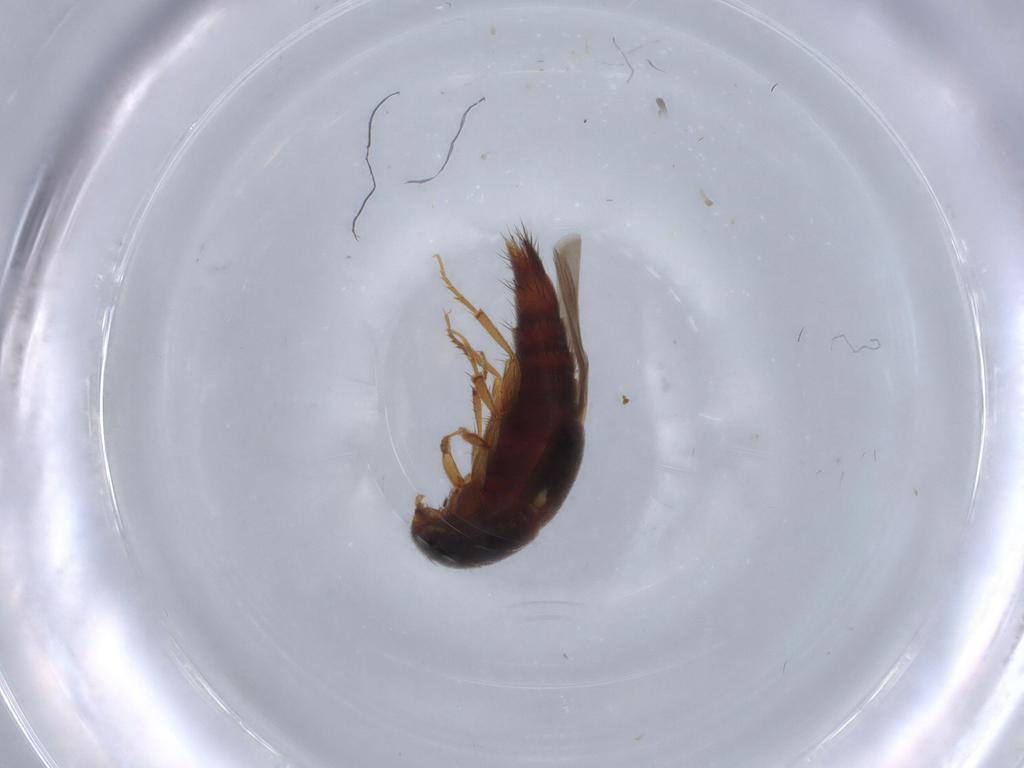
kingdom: Animalia
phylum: Arthropoda
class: Insecta
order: Coleoptera
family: Staphylinidae
